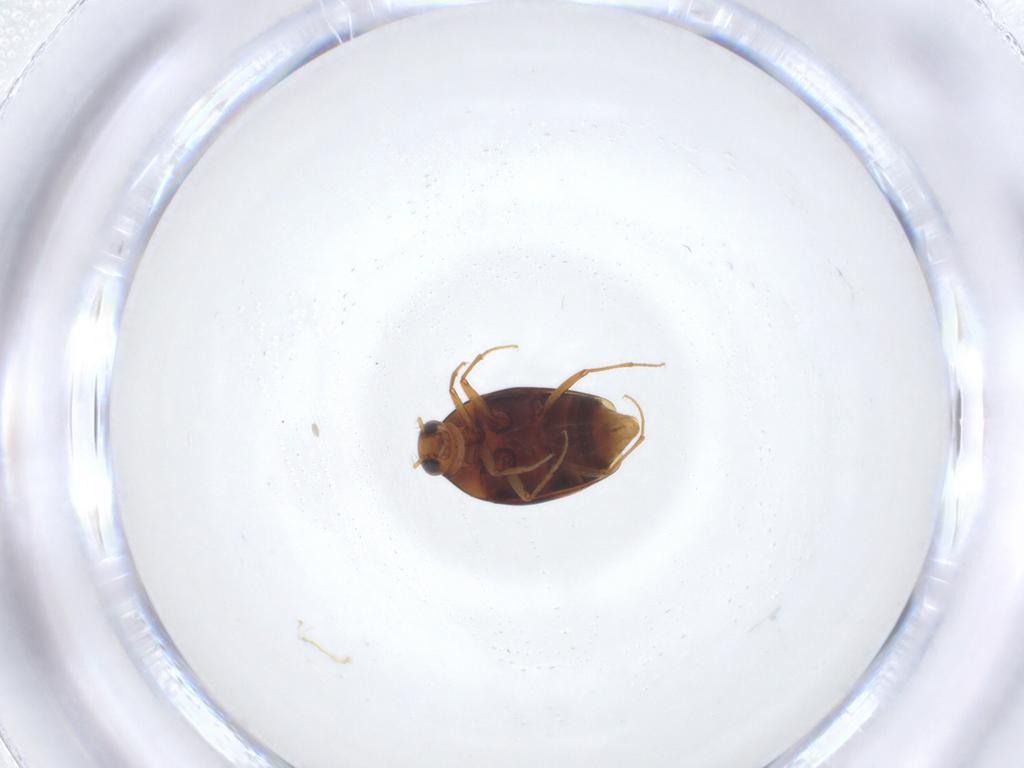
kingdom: Animalia
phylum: Arthropoda
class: Insecta
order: Coleoptera
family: Staphylinidae
